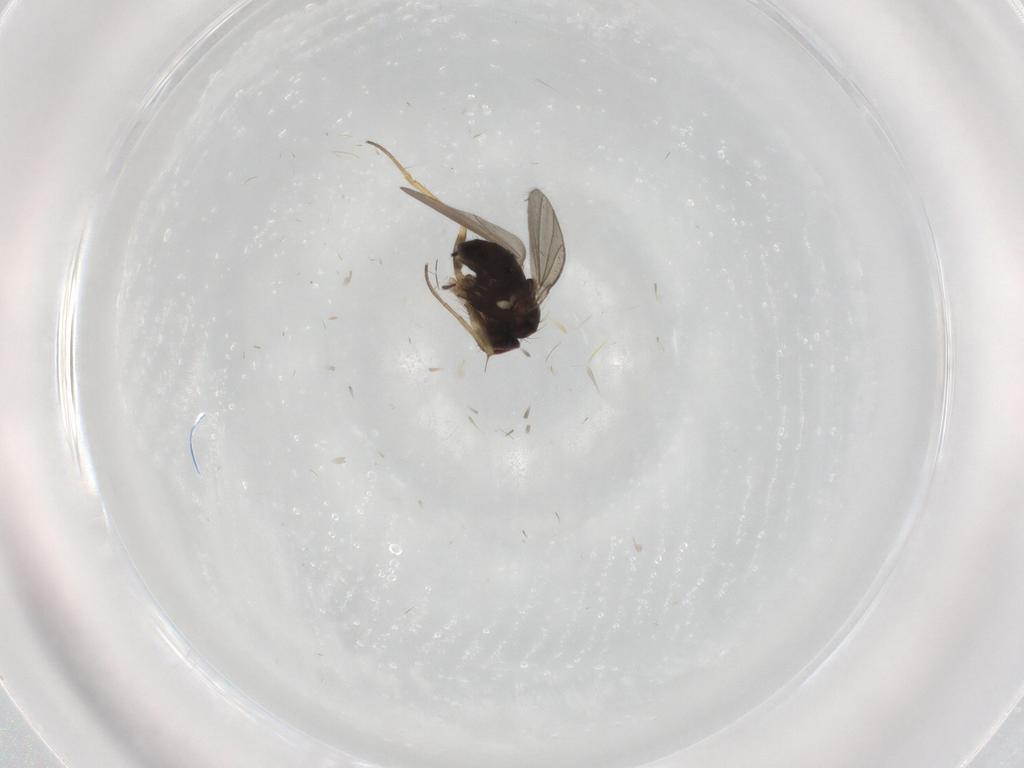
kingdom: Animalia
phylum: Arthropoda
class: Insecta
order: Diptera
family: Dolichopodidae
